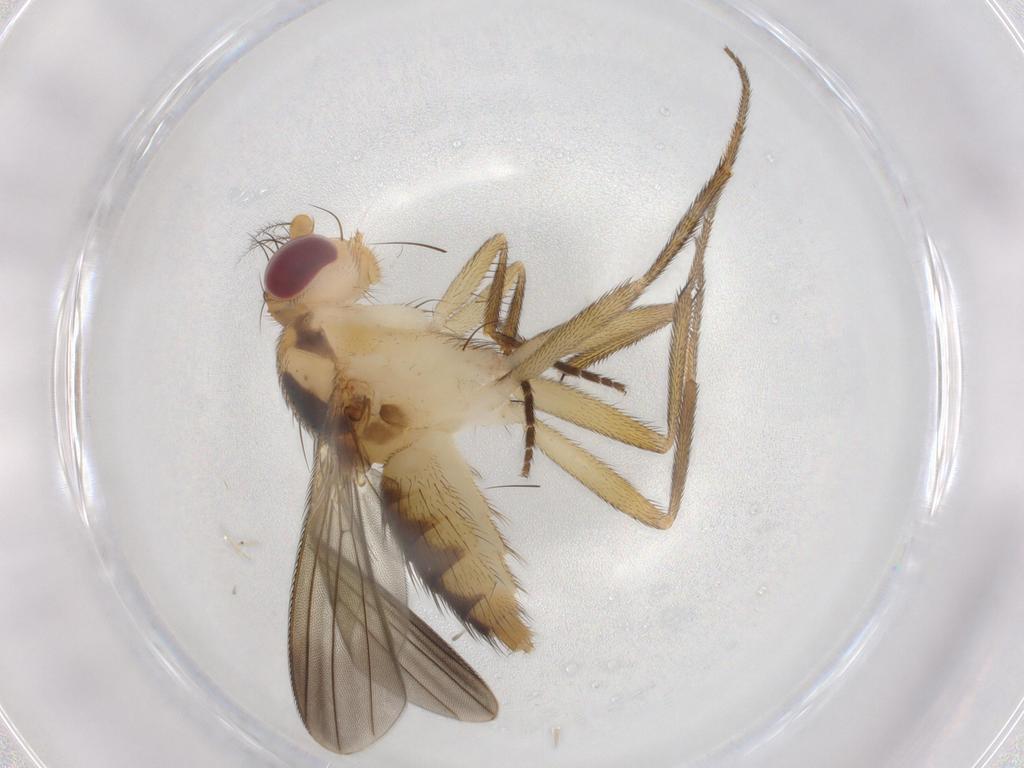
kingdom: Animalia
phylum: Arthropoda
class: Insecta
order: Diptera
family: Clusiidae
